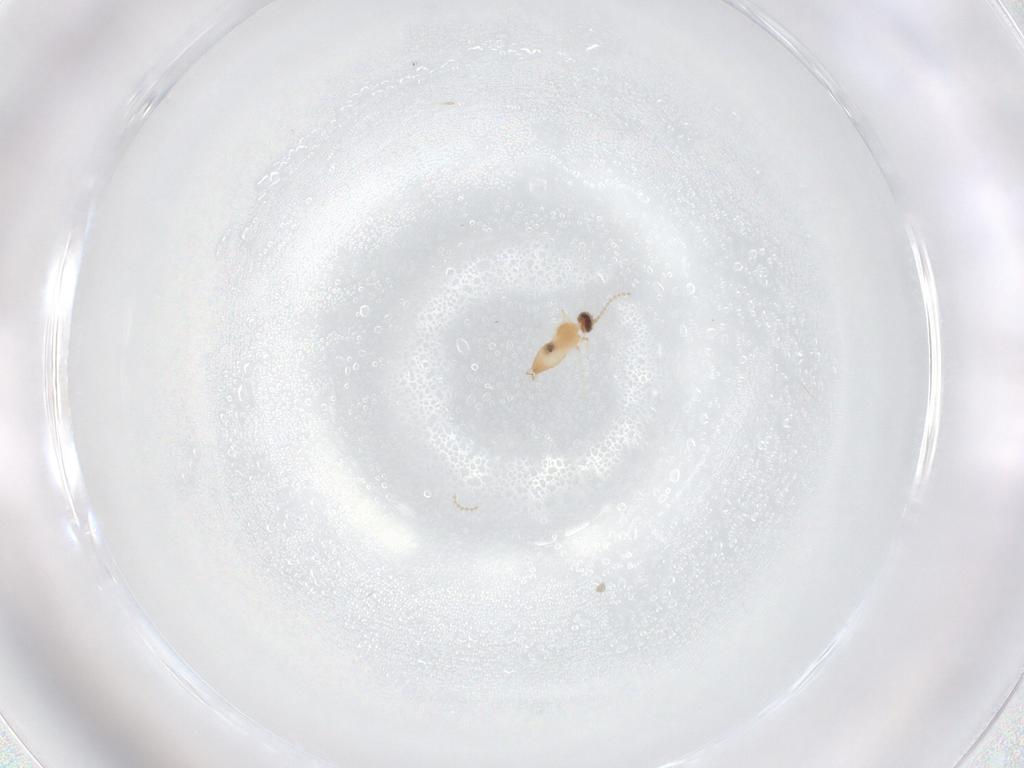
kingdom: Animalia
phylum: Arthropoda
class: Insecta
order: Diptera
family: Cecidomyiidae
